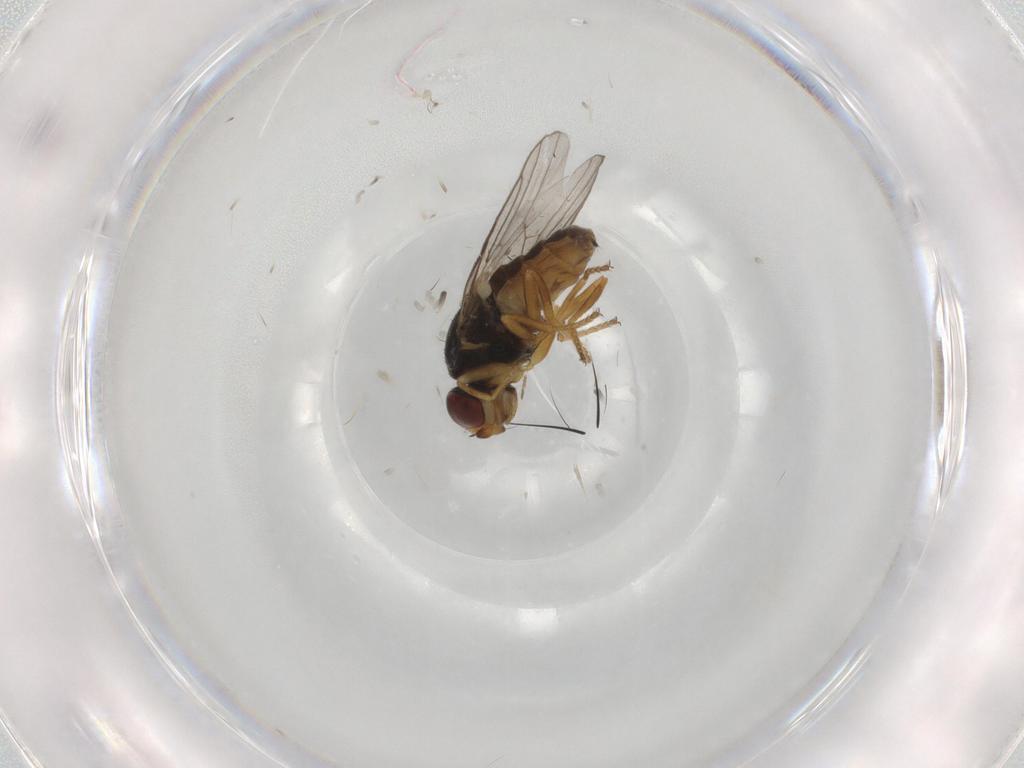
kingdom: Animalia
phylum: Arthropoda
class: Insecta
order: Diptera
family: Chloropidae
